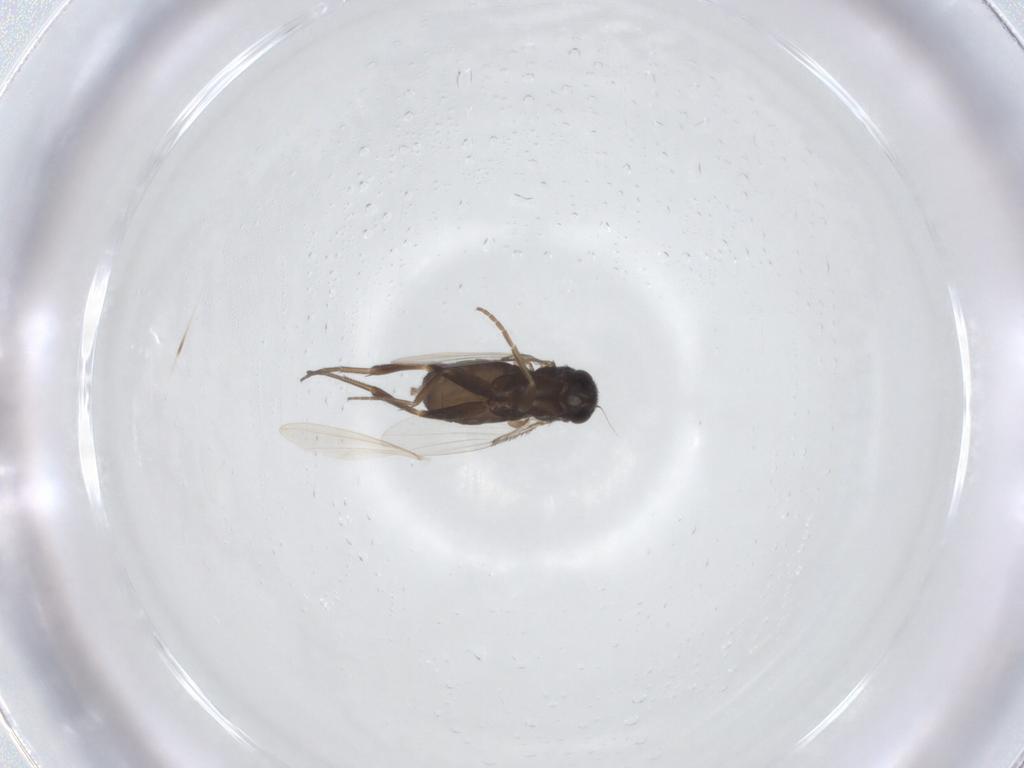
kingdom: Animalia
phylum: Arthropoda
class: Insecta
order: Diptera
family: Phoridae
